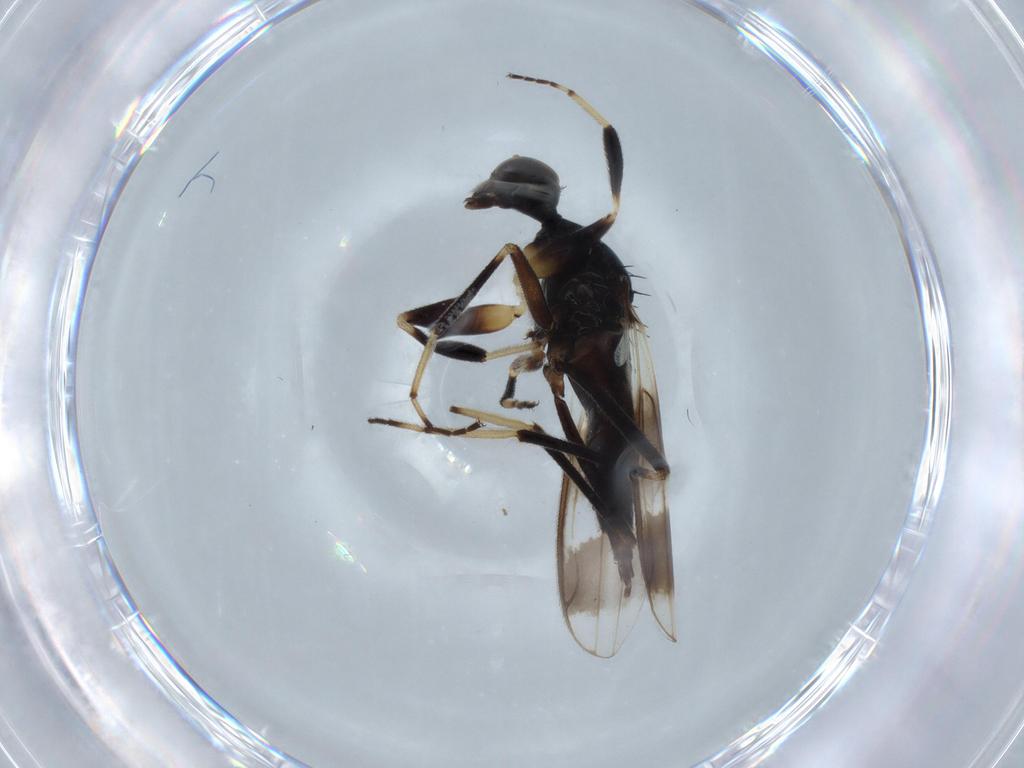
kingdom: Animalia
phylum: Arthropoda
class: Insecta
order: Diptera
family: Hybotidae
